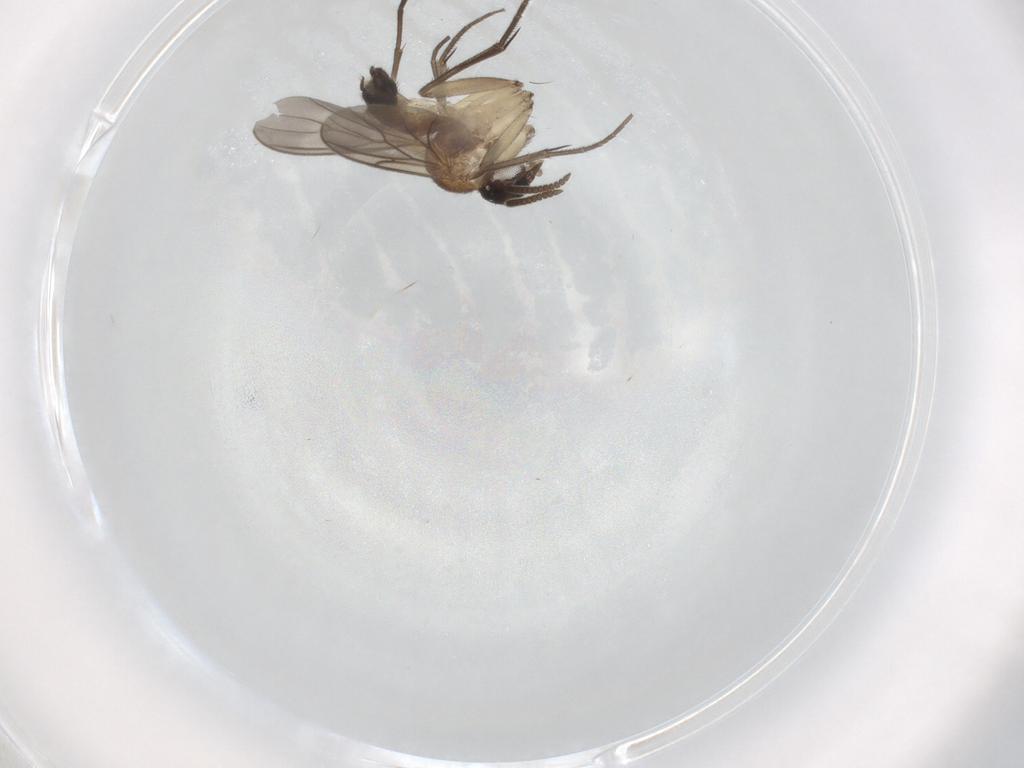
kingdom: Animalia
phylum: Arthropoda
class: Insecta
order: Diptera
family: Mycetophilidae
